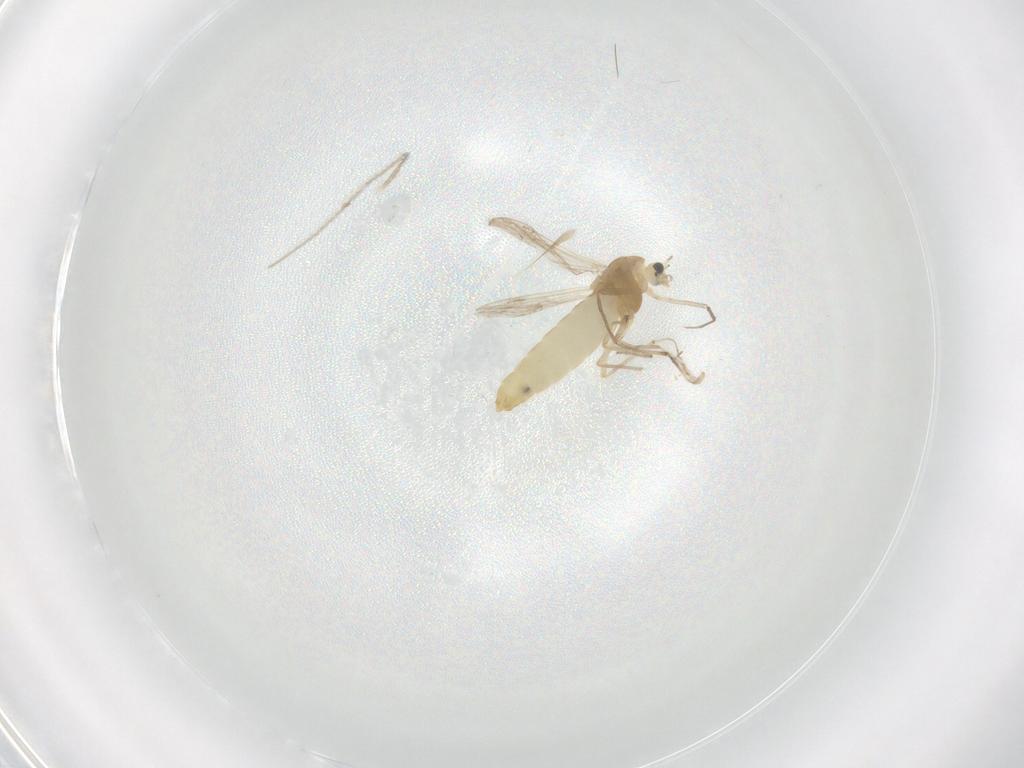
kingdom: Animalia
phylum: Arthropoda
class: Insecta
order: Diptera
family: Chironomidae
